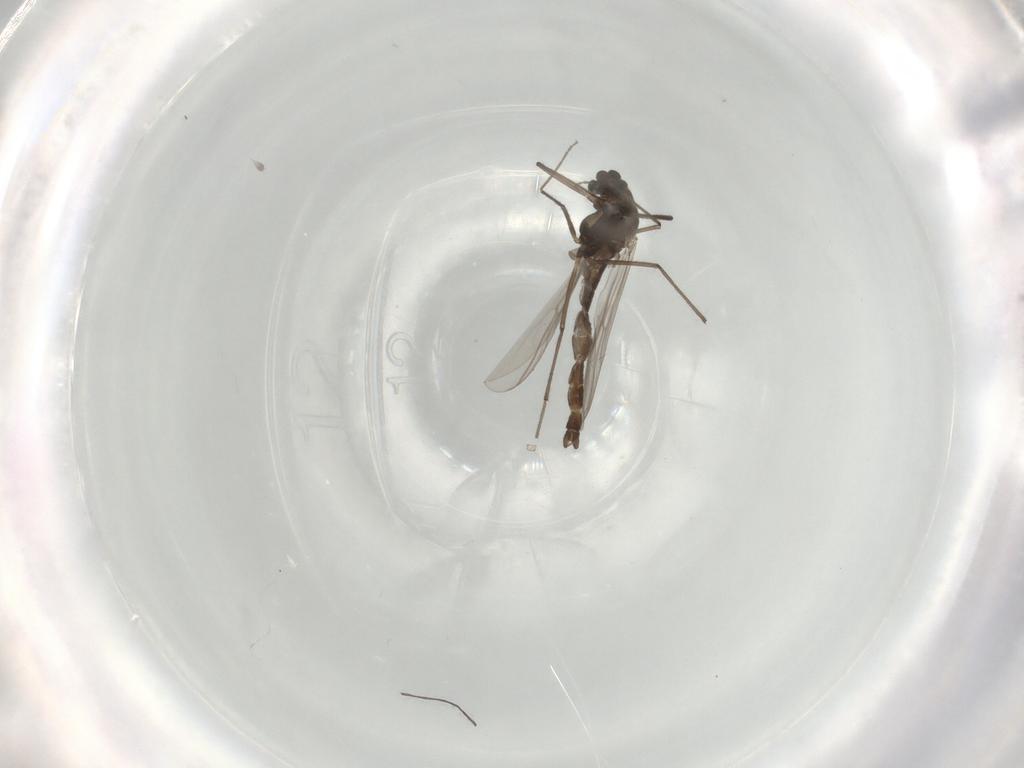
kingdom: Animalia
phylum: Arthropoda
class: Insecta
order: Diptera
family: Chironomidae
